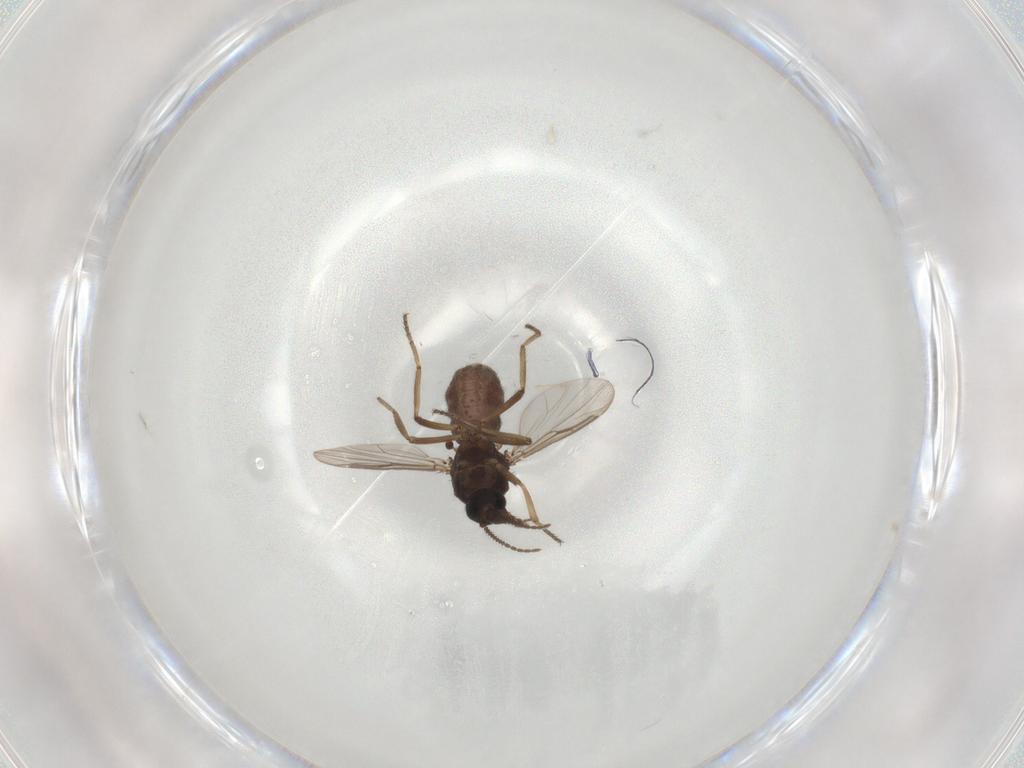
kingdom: Animalia
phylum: Arthropoda
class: Insecta
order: Diptera
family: Ceratopogonidae
